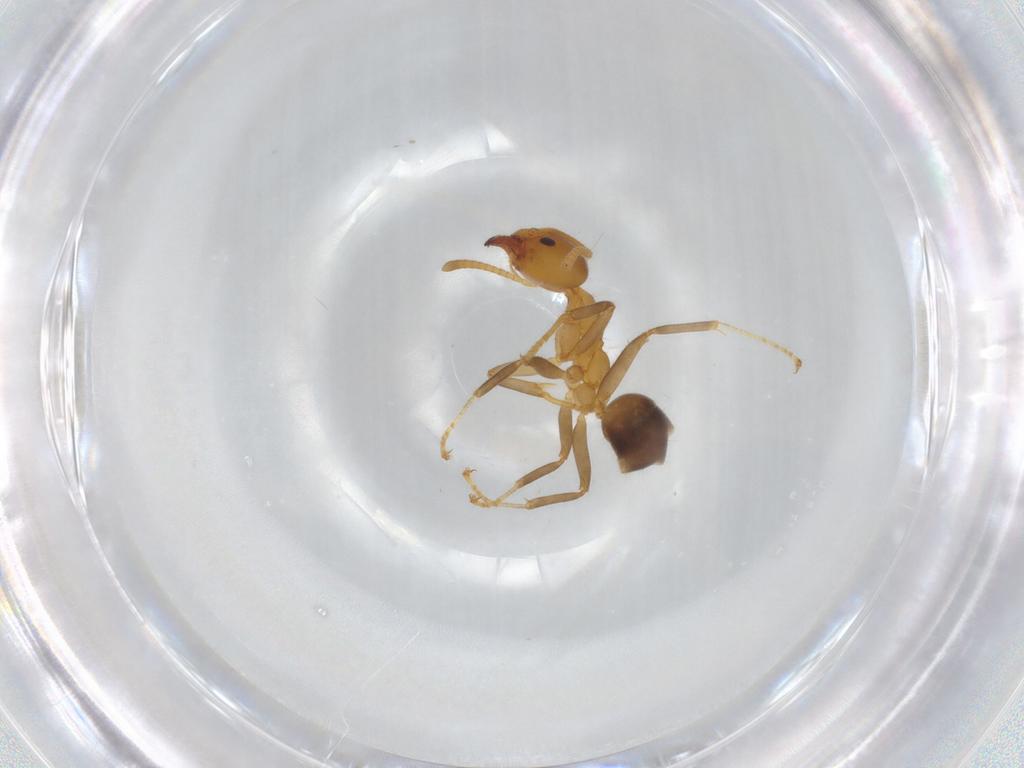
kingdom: Animalia
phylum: Arthropoda
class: Insecta
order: Hymenoptera
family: Formicidae
